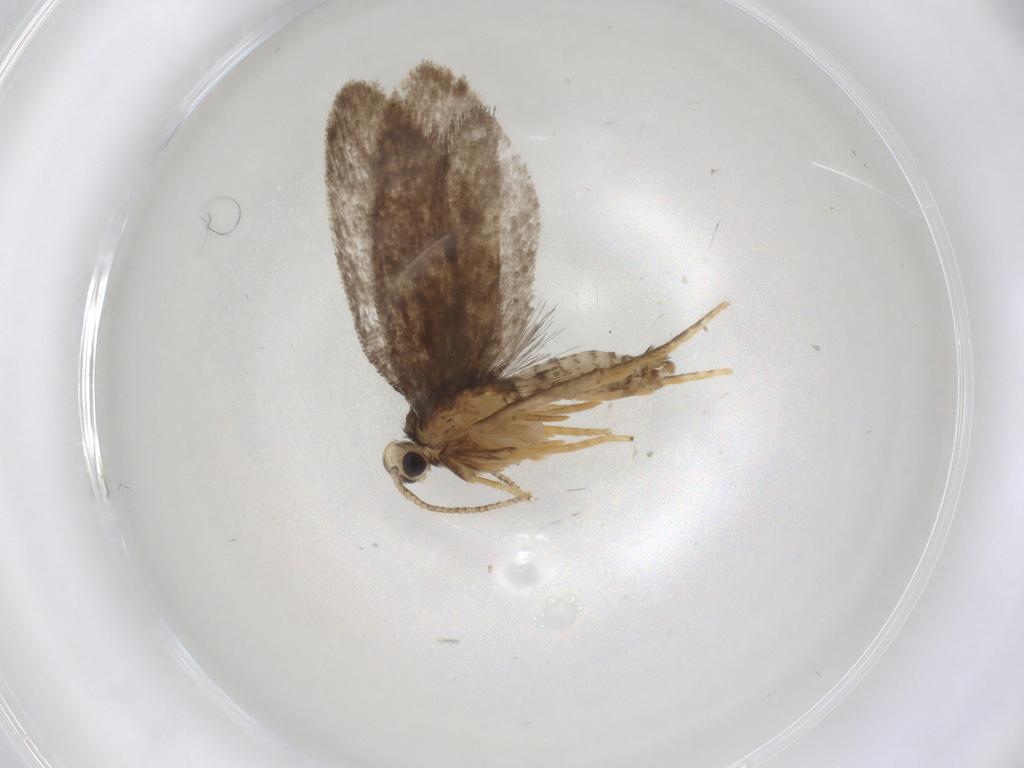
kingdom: Animalia
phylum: Arthropoda
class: Insecta
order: Lepidoptera
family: Psychidae
